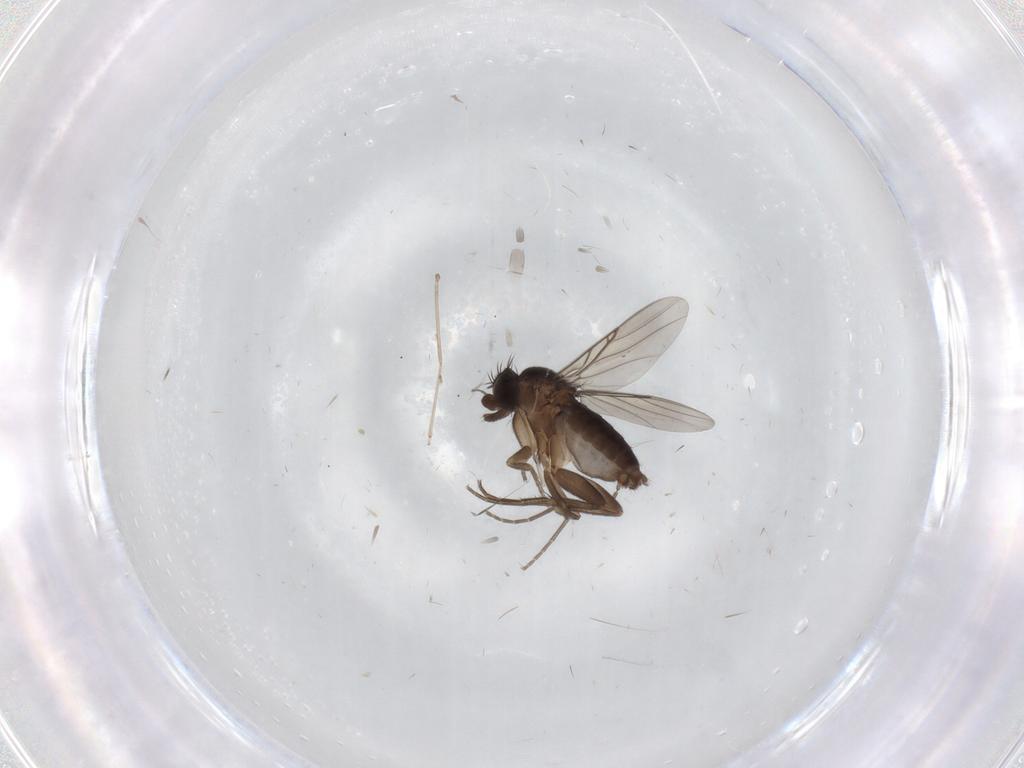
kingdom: Animalia
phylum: Arthropoda
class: Insecta
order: Diptera
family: Phoridae
